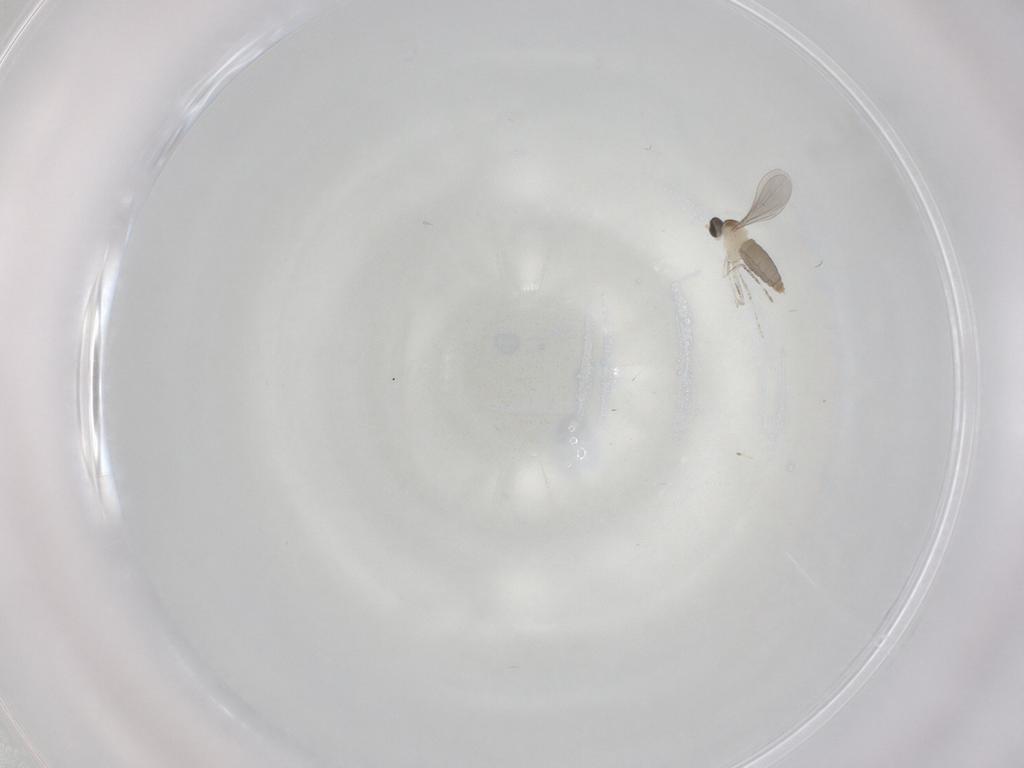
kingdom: Animalia
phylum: Arthropoda
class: Insecta
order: Diptera
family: Cecidomyiidae
